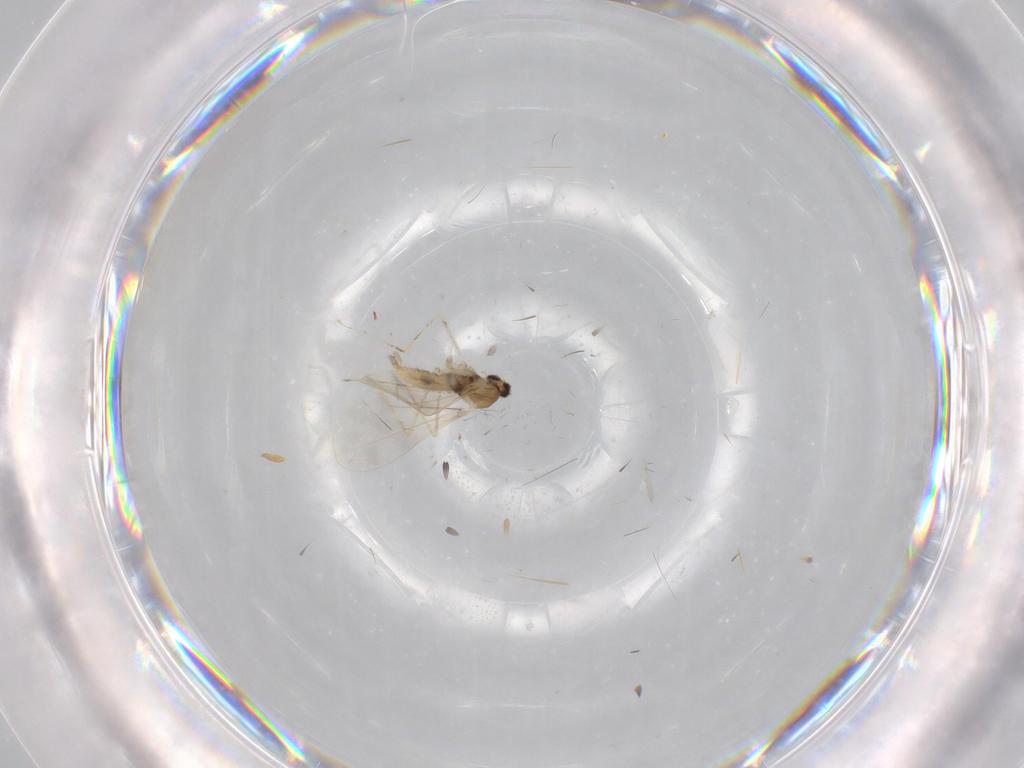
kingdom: Animalia
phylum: Arthropoda
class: Insecta
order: Diptera
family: Cecidomyiidae
